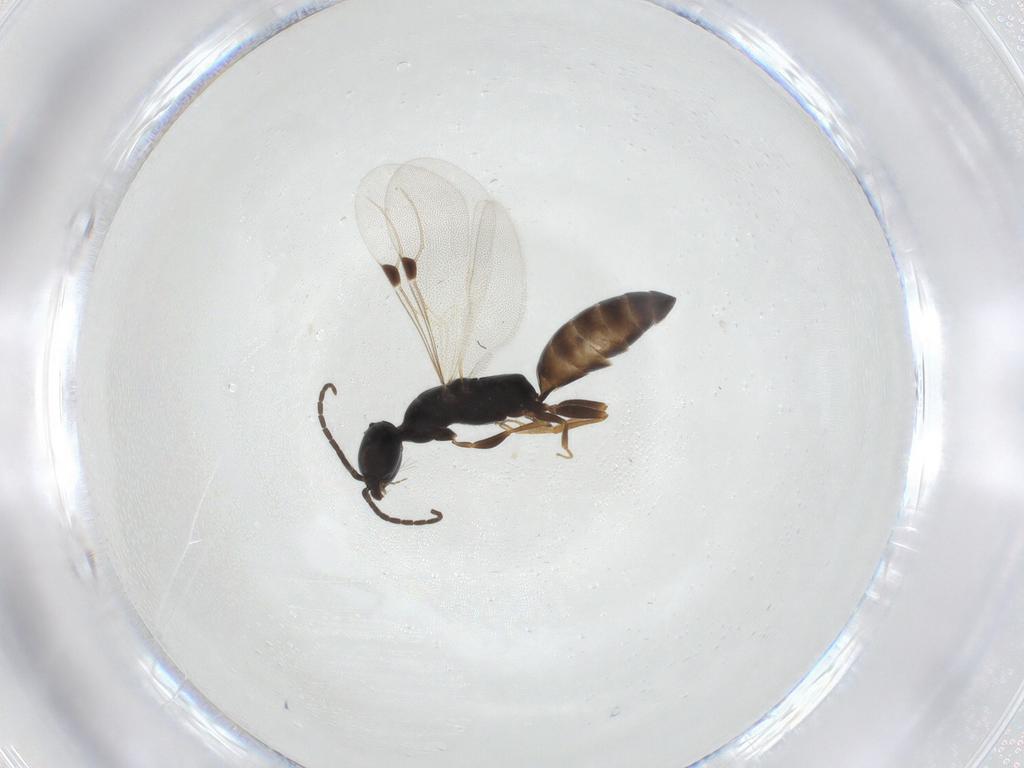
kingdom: Animalia
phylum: Arthropoda
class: Insecta
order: Hymenoptera
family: Bethylidae
